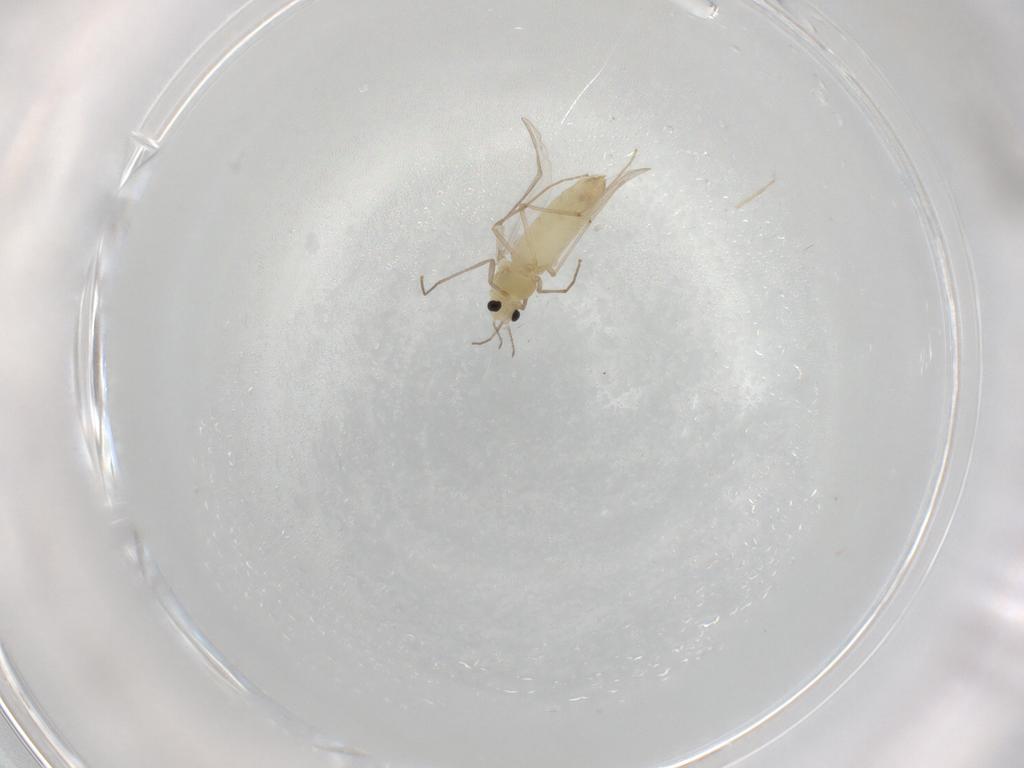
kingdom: Animalia
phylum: Arthropoda
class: Insecta
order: Diptera
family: Chironomidae
